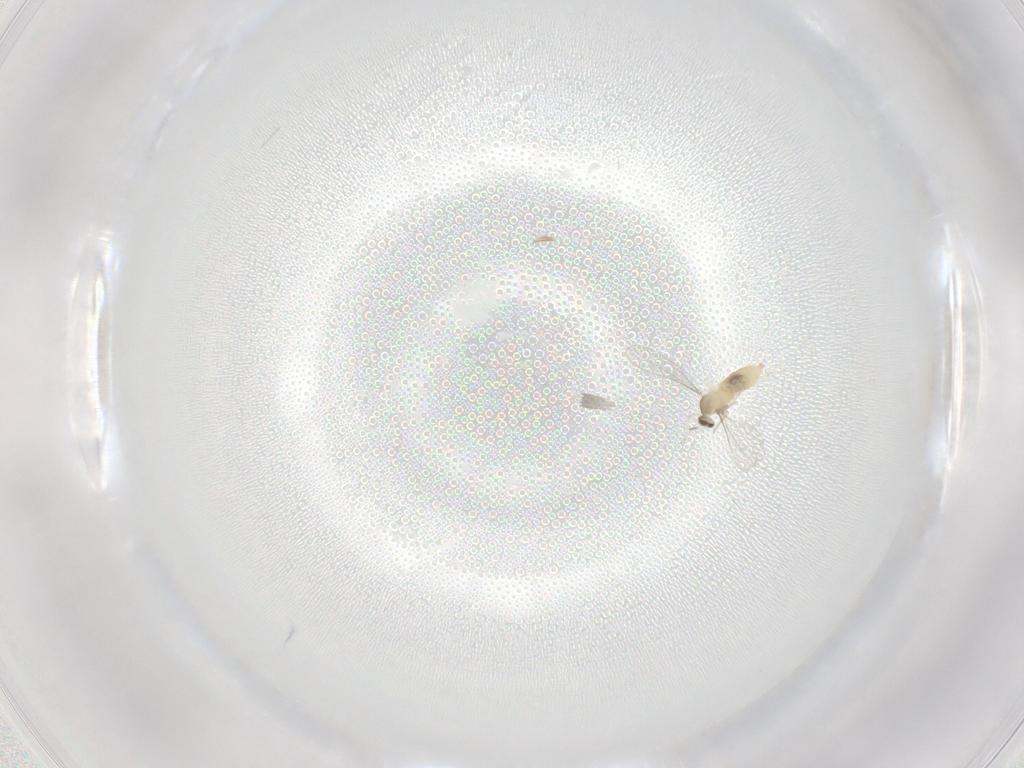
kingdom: Animalia
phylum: Arthropoda
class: Insecta
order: Diptera
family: Cecidomyiidae
